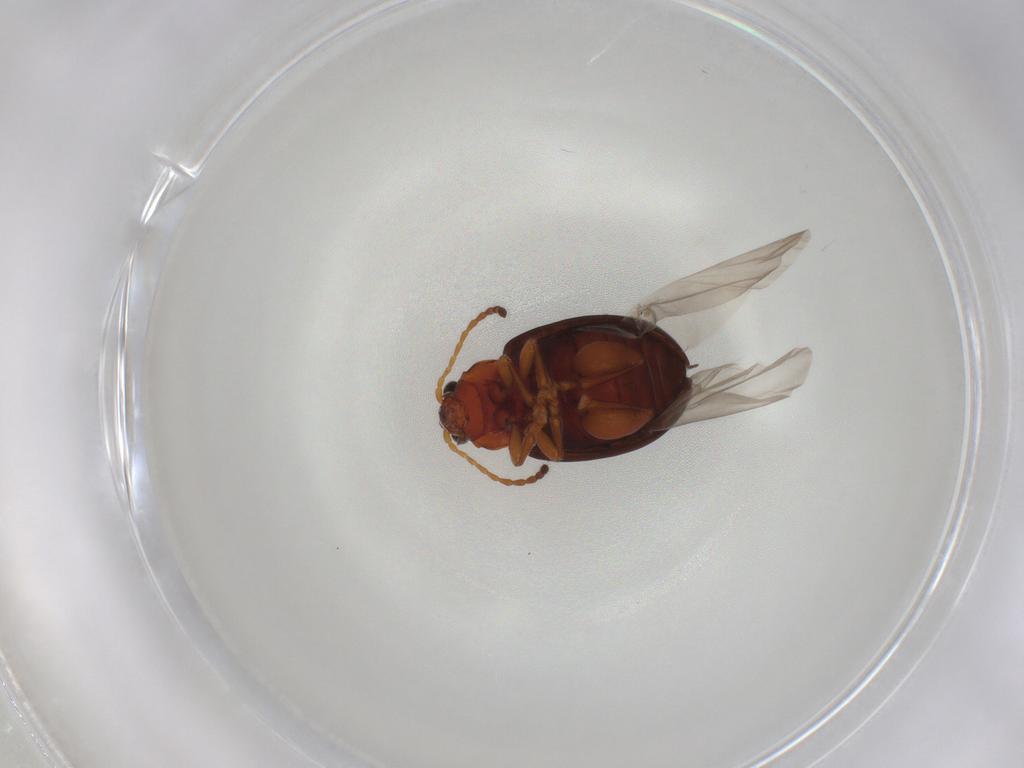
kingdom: Animalia
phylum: Arthropoda
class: Insecta
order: Coleoptera
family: Chrysomelidae
